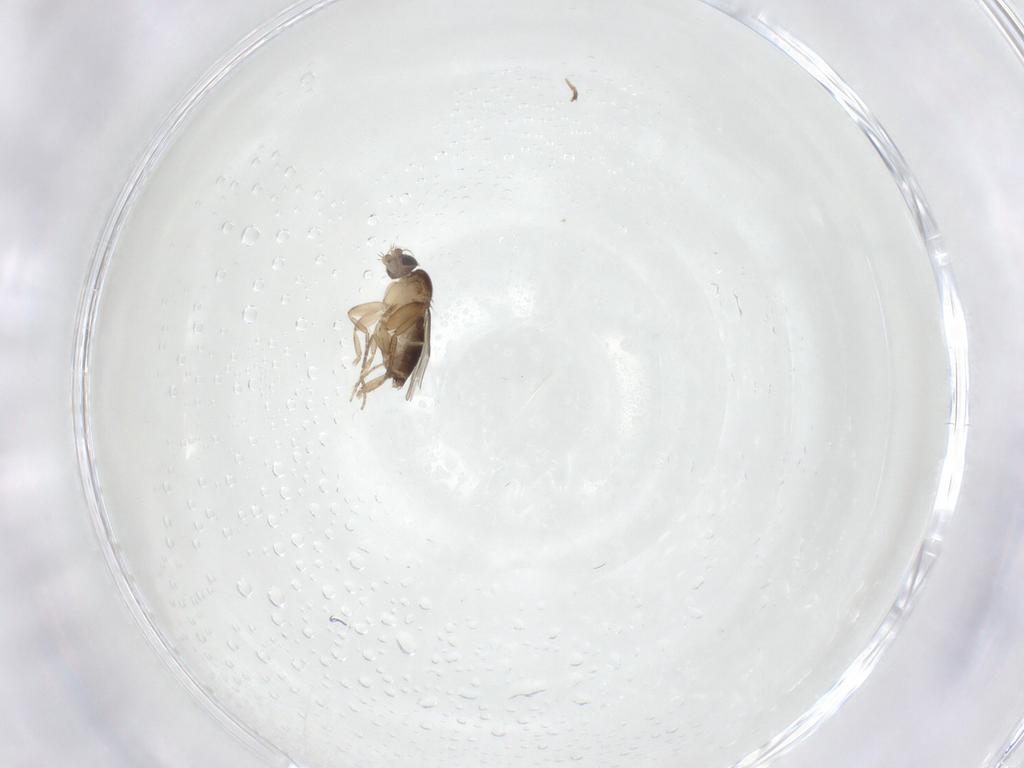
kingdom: Animalia
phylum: Arthropoda
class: Insecta
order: Diptera
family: Phoridae
